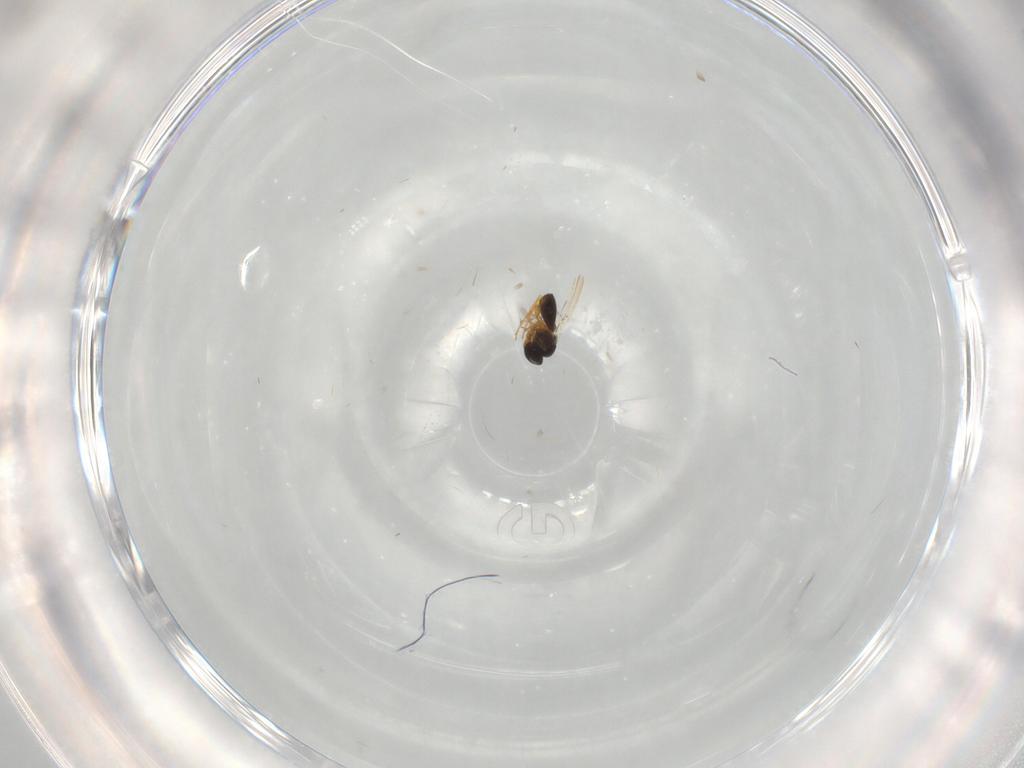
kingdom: Animalia
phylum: Arthropoda
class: Insecta
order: Hymenoptera
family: Platygastridae
